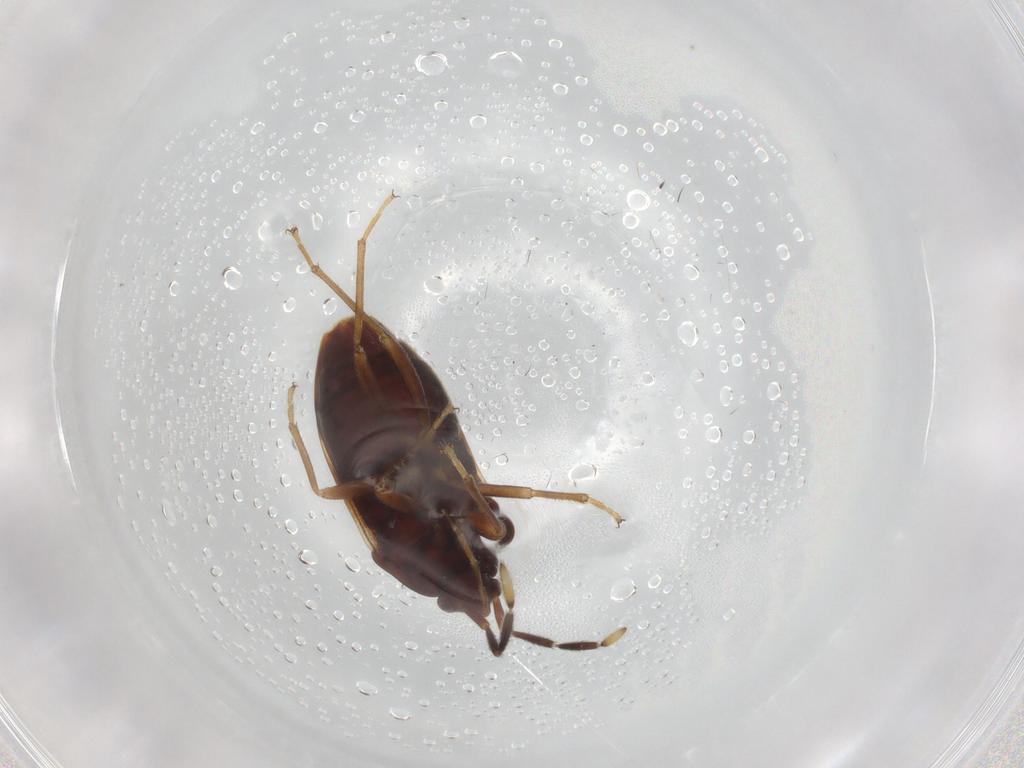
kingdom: Animalia
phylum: Arthropoda
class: Insecta
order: Hemiptera
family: Rhyparochromidae
